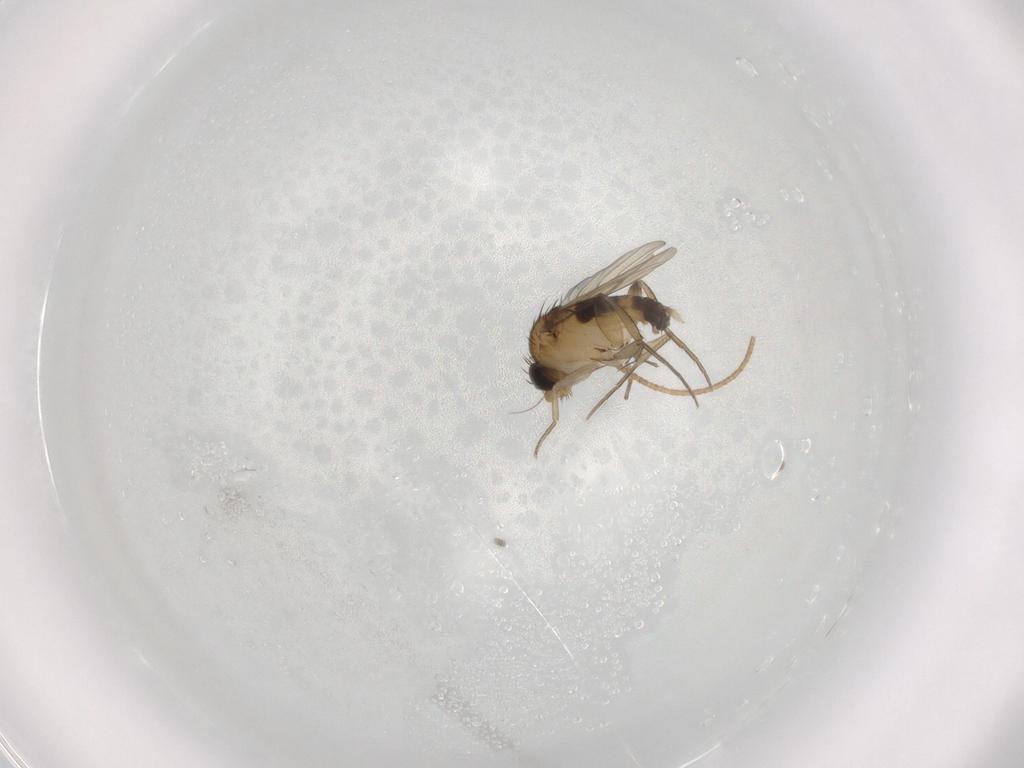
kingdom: Animalia
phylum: Arthropoda
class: Insecta
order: Diptera
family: Phoridae
